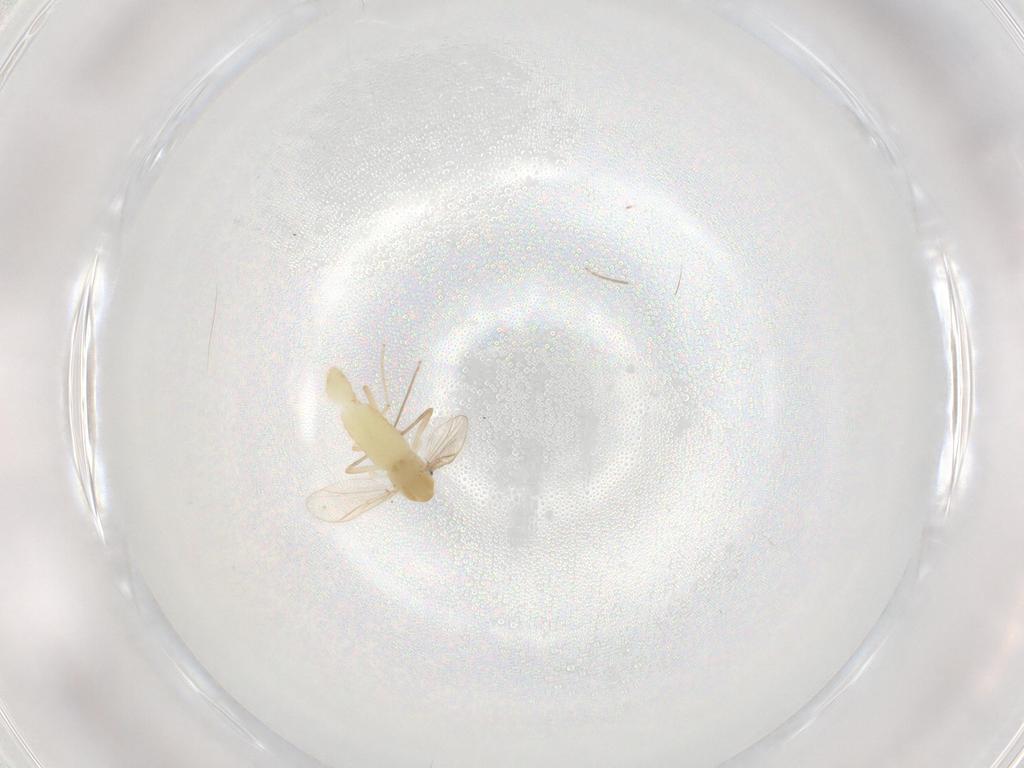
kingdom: Animalia
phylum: Arthropoda
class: Insecta
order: Diptera
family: Chironomidae
